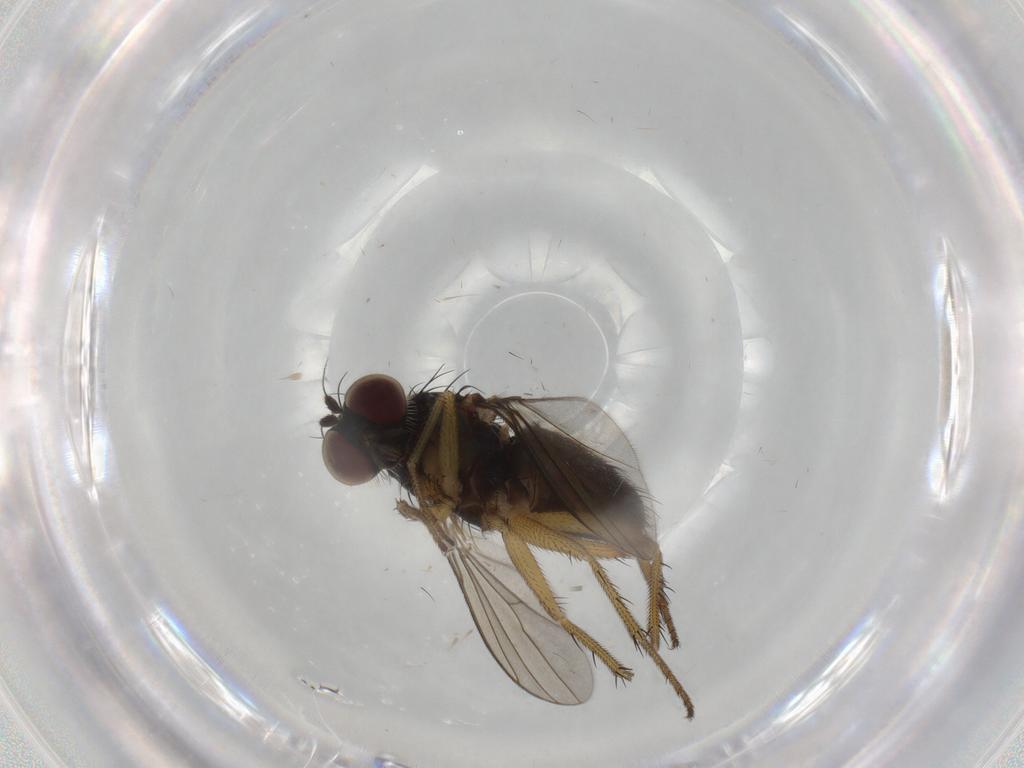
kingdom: Animalia
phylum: Arthropoda
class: Insecta
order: Diptera
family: Dolichopodidae
